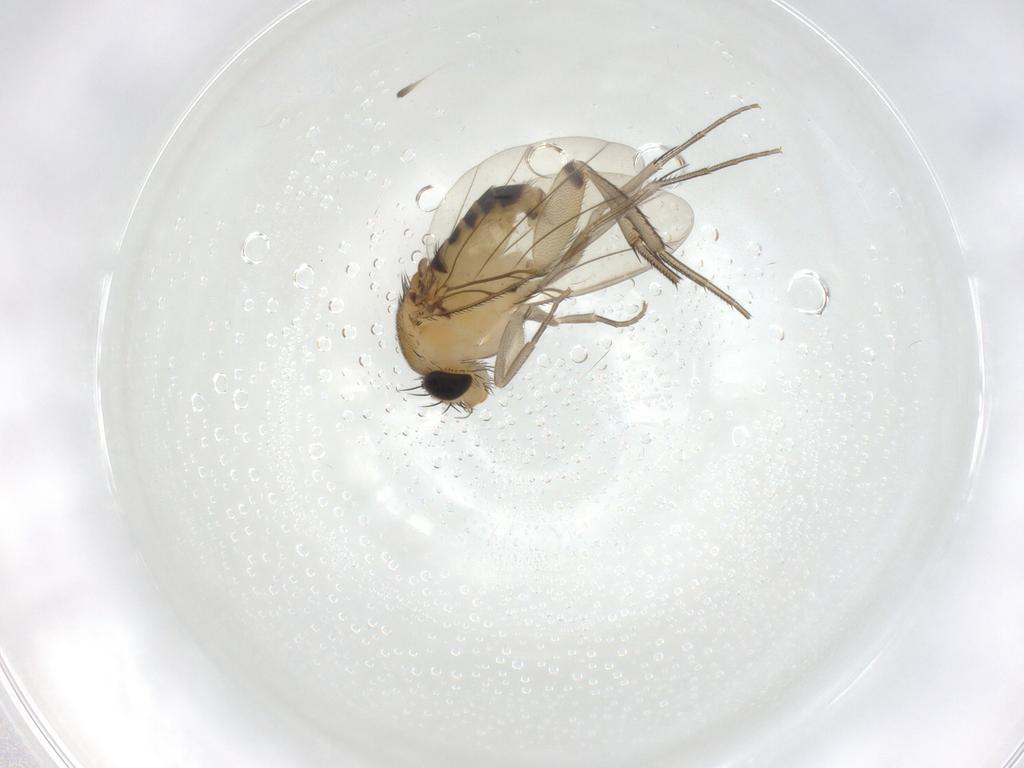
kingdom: Animalia
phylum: Arthropoda
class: Insecta
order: Diptera
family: Phoridae
